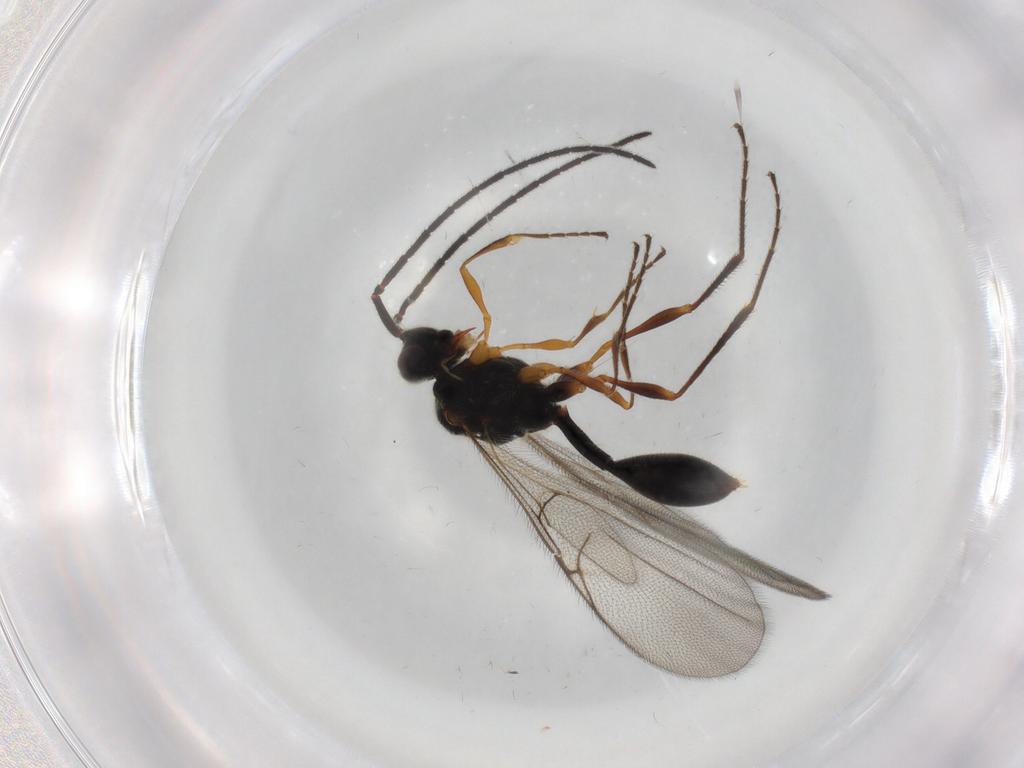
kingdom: Animalia
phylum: Arthropoda
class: Insecta
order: Hymenoptera
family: Diapriidae
